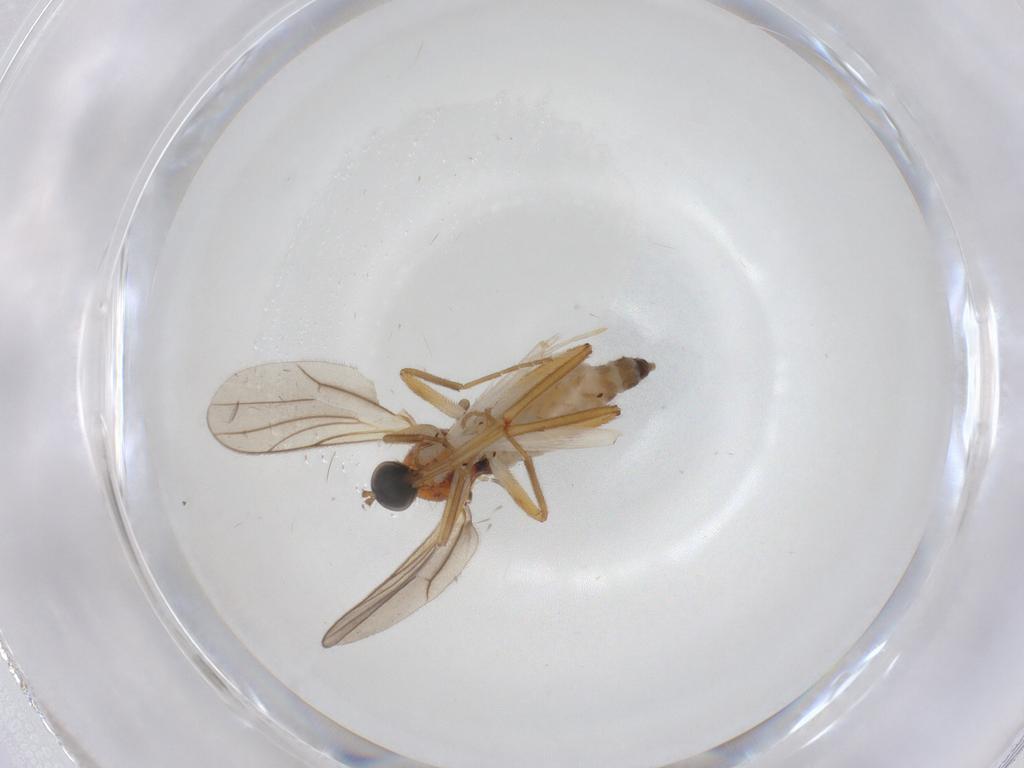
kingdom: Animalia
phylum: Arthropoda
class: Insecta
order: Diptera
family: Hybotidae
